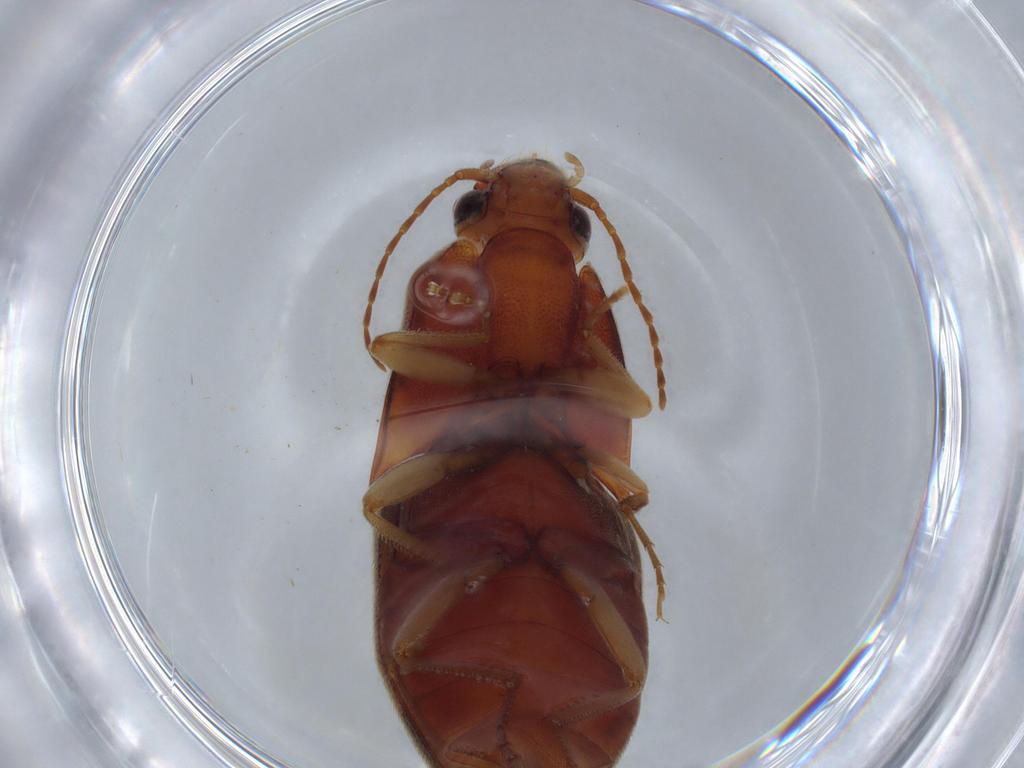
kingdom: Animalia
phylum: Arthropoda
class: Insecta
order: Coleoptera
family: Elateridae
